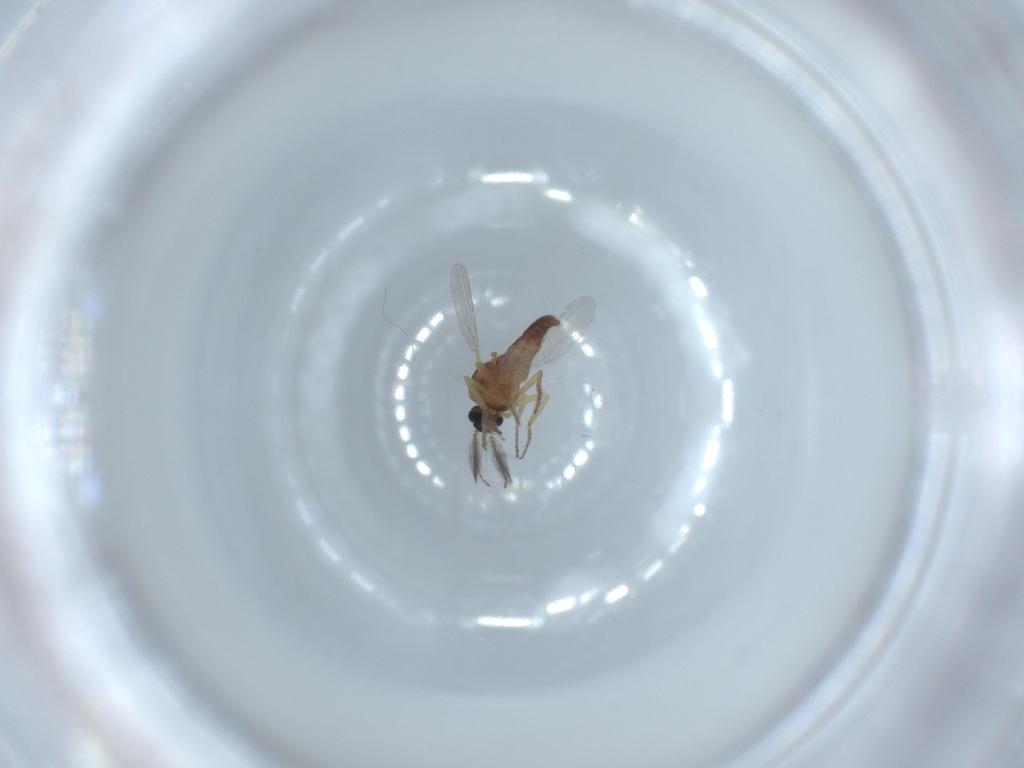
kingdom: Animalia
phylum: Arthropoda
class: Insecta
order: Diptera
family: Ceratopogonidae
